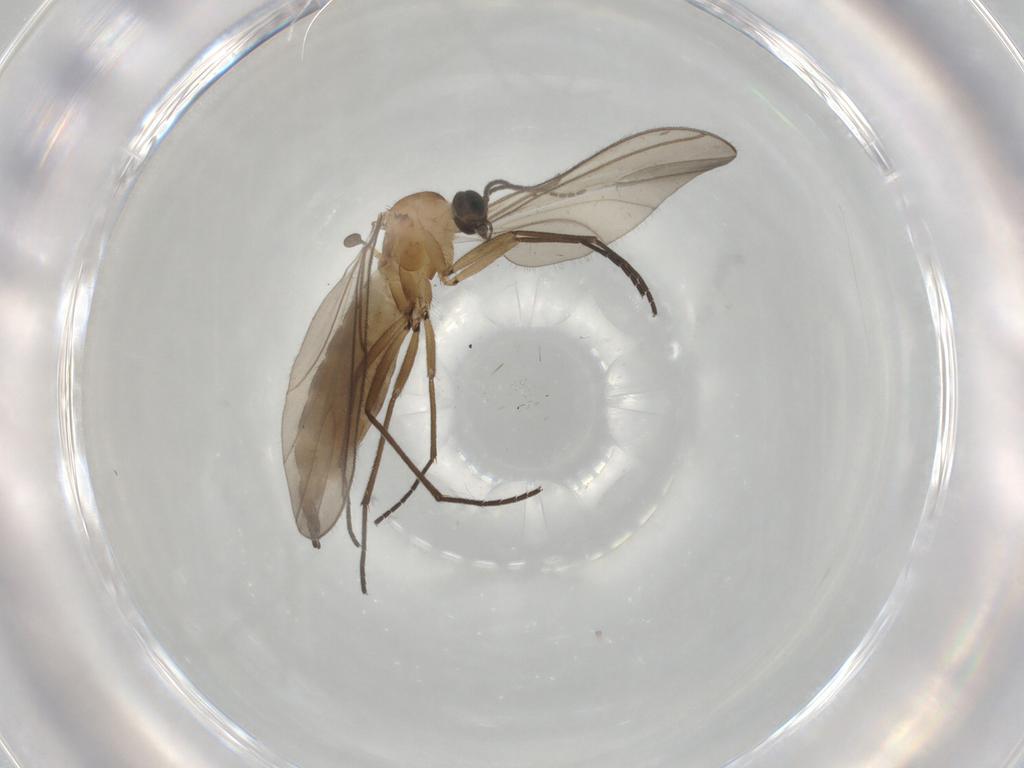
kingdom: Animalia
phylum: Arthropoda
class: Insecta
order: Diptera
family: Sciaridae
